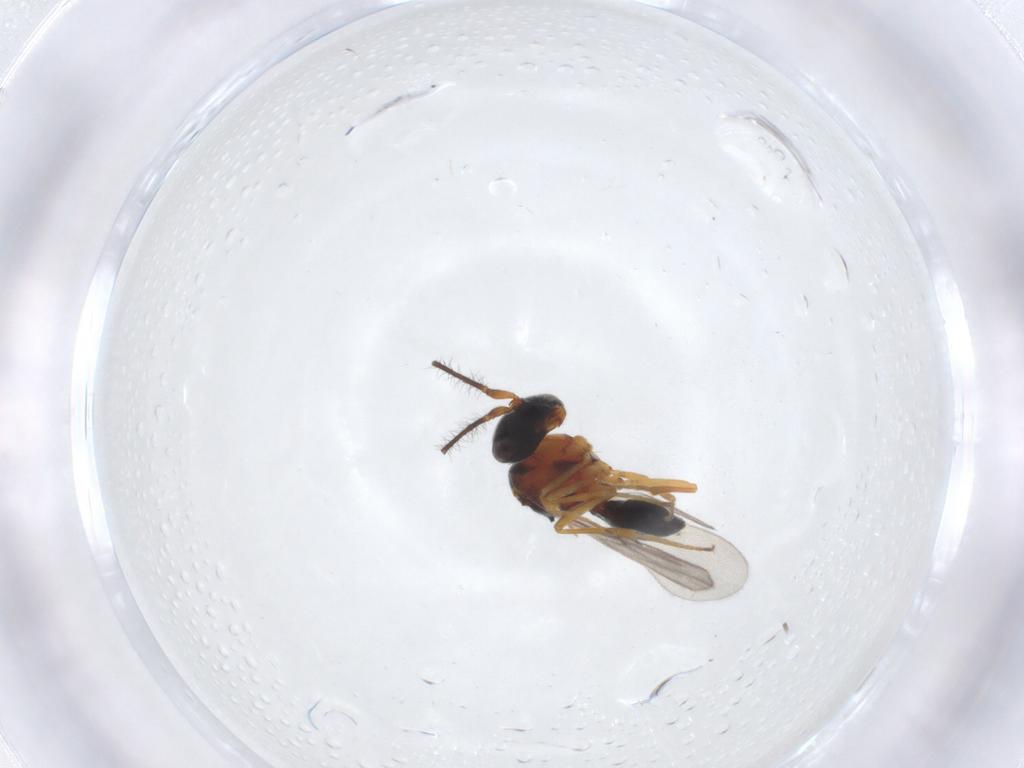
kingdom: Animalia
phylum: Arthropoda
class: Insecta
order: Hymenoptera
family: Scelionidae
